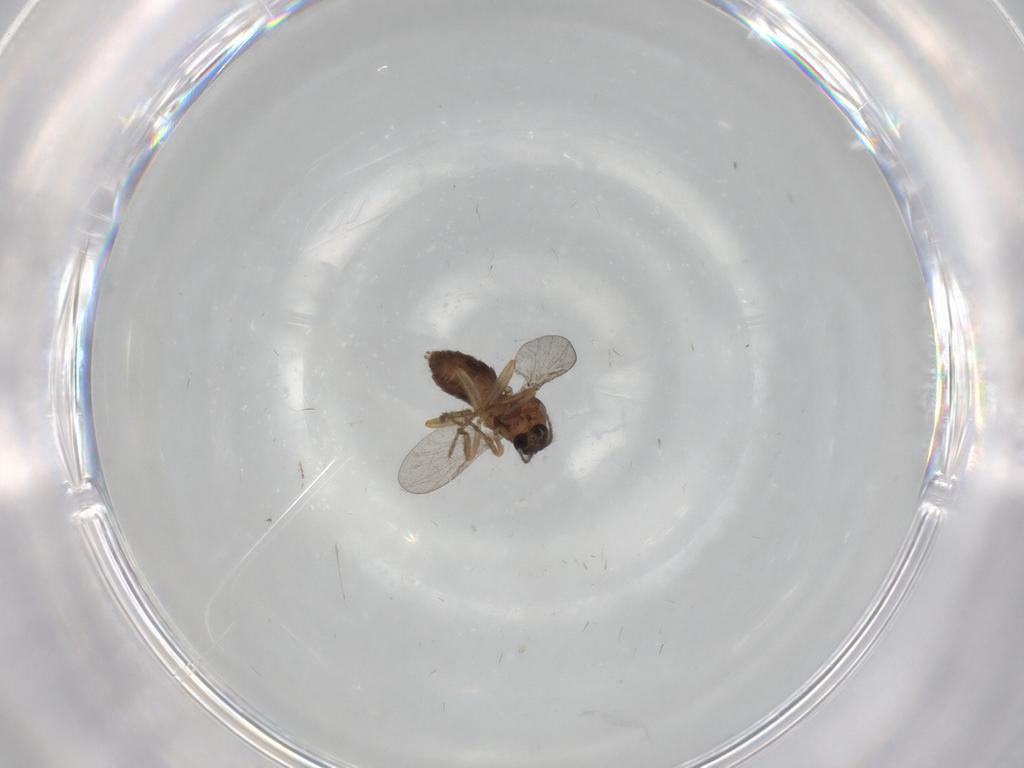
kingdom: Animalia
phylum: Arthropoda
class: Insecta
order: Diptera
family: Ceratopogonidae
